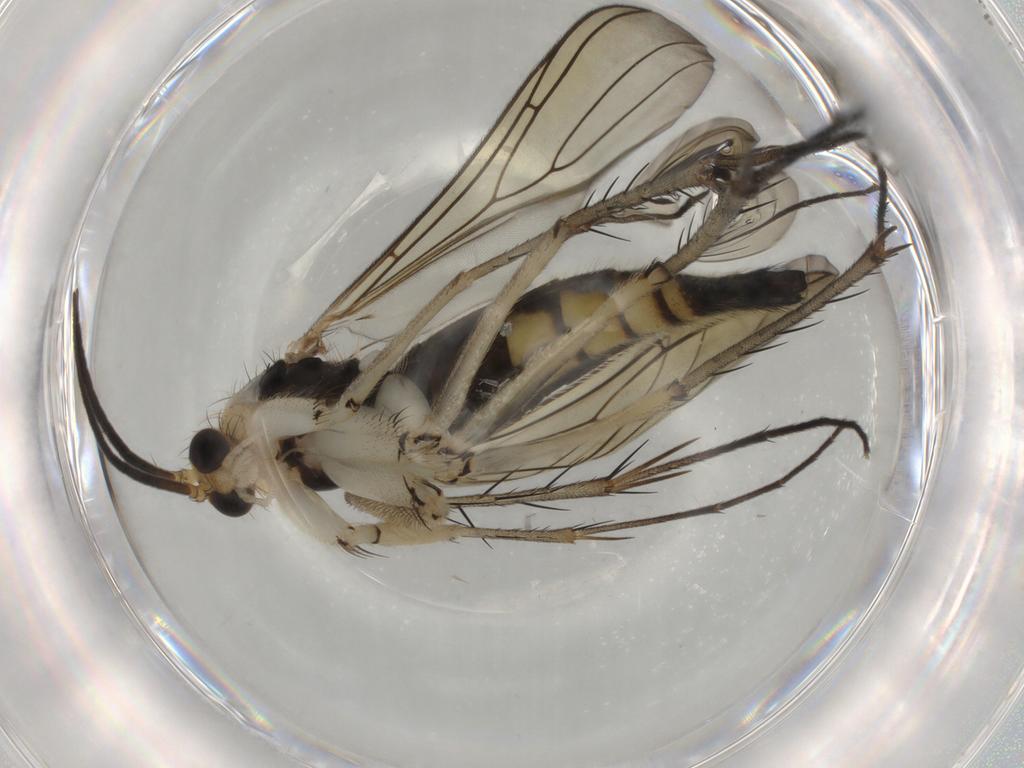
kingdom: Animalia
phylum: Arthropoda
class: Insecta
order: Diptera
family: Mycetophilidae
